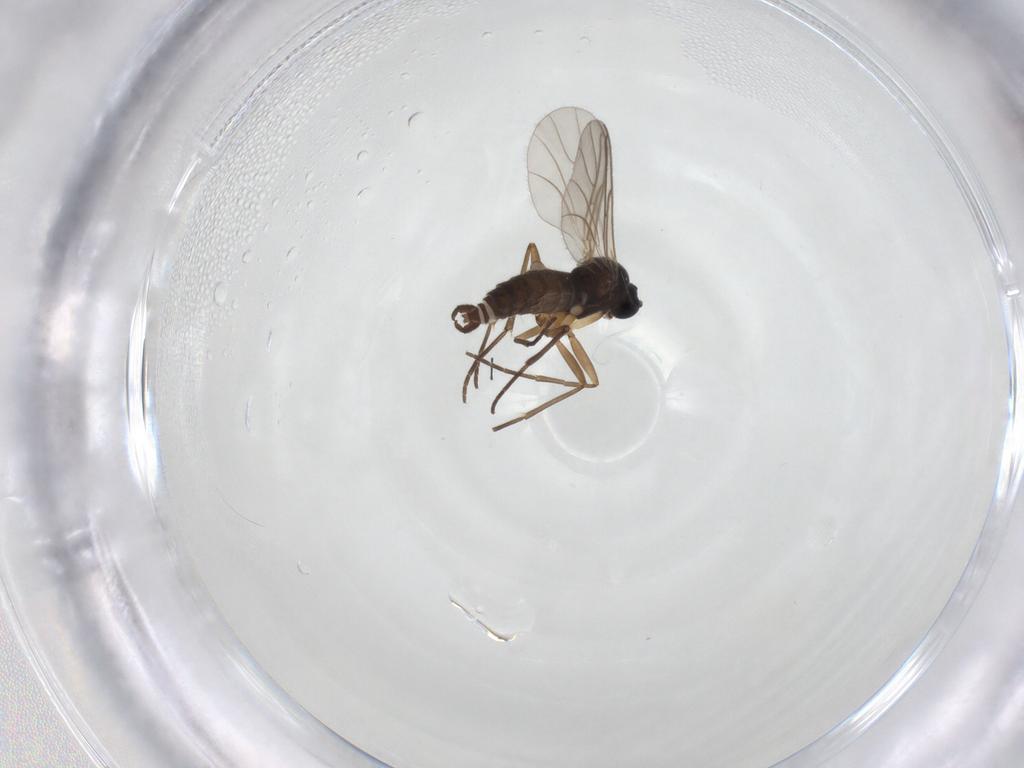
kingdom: Animalia
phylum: Arthropoda
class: Insecta
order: Diptera
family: Sciaridae
